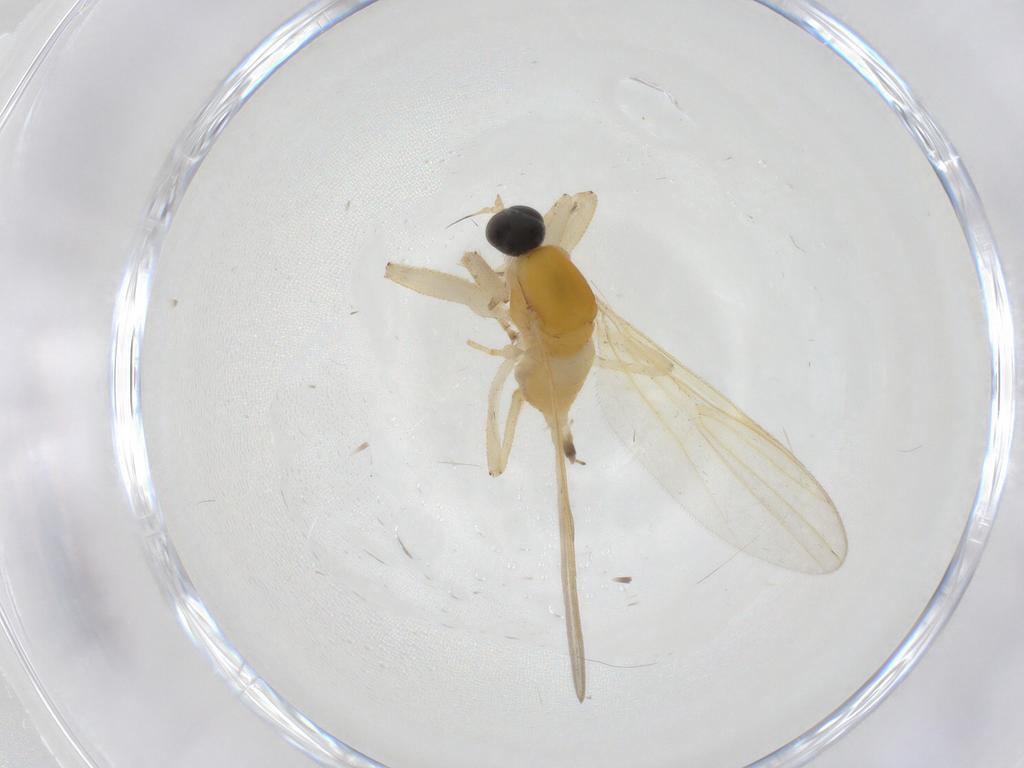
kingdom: Animalia
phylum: Arthropoda
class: Insecta
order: Diptera
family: Hybotidae
